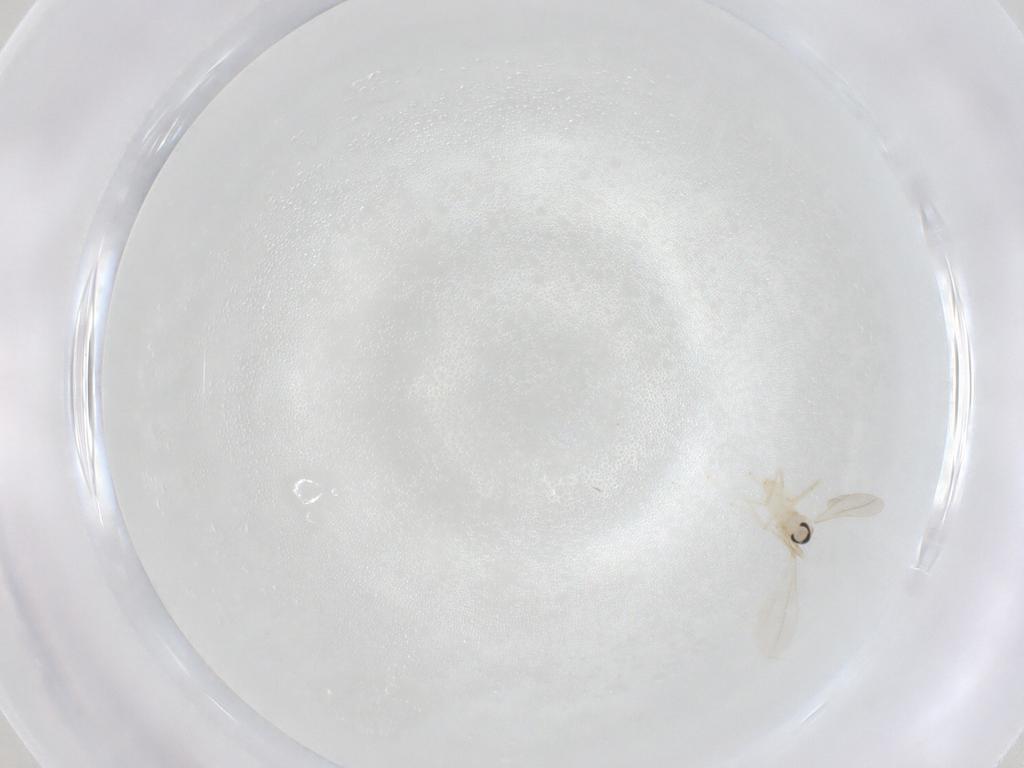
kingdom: Animalia
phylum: Arthropoda
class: Insecta
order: Diptera
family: Cecidomyiidae
